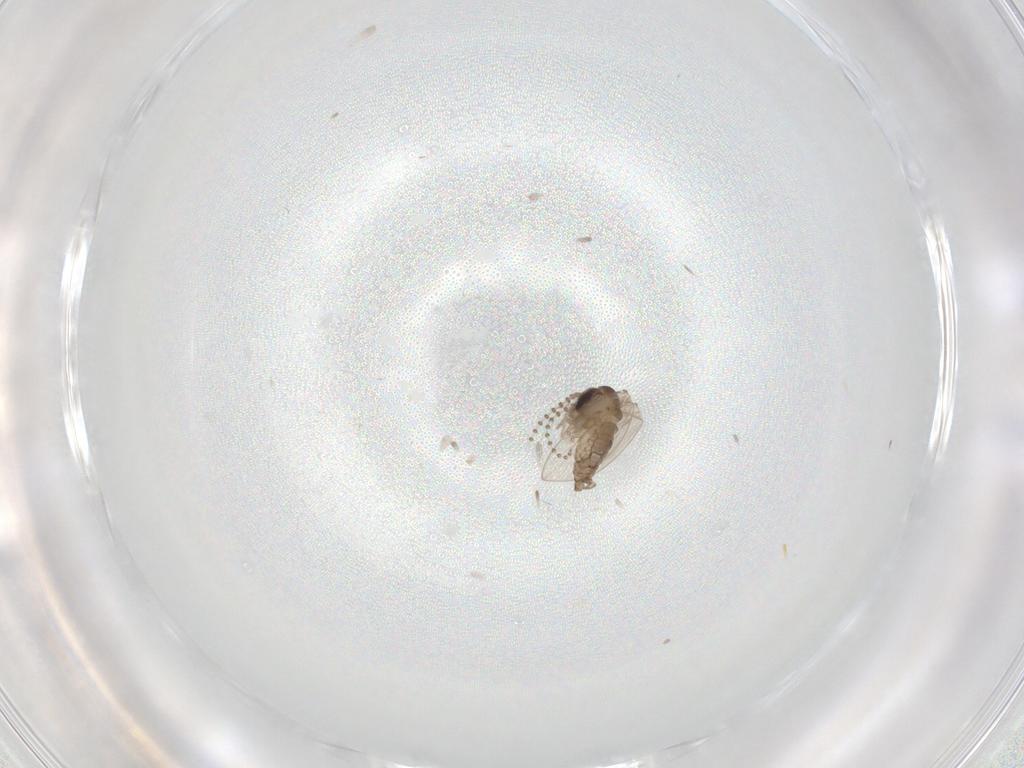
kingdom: Animalia
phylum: Arthropoda
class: Insecta
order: Diptera
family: Psychodidae
